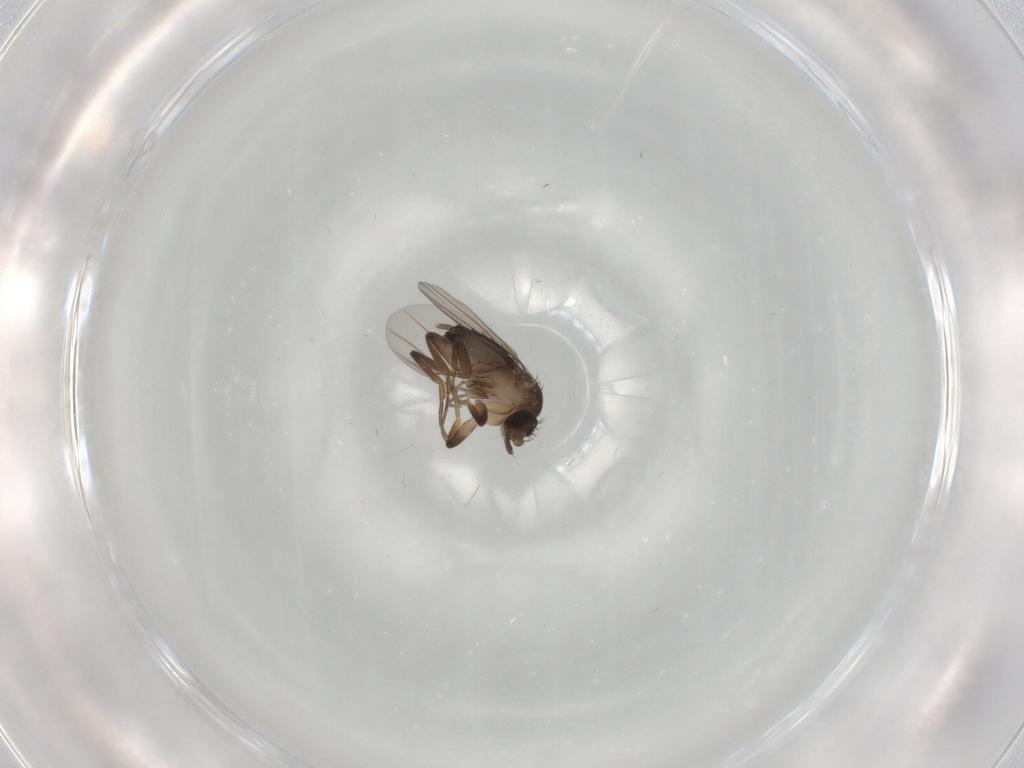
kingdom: Animalia
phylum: Arthropoda
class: Insecta
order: Diptera
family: Phoridae
